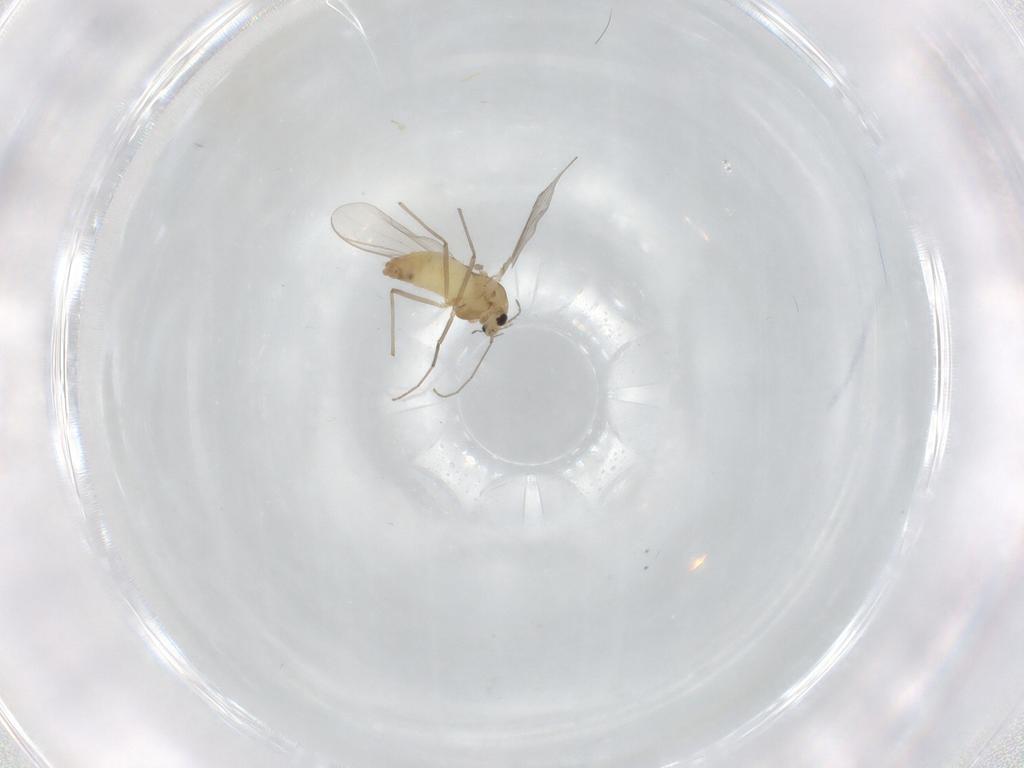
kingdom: Animalia
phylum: Arthropoda
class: Insecta
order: Diptera
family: Chironomidae
